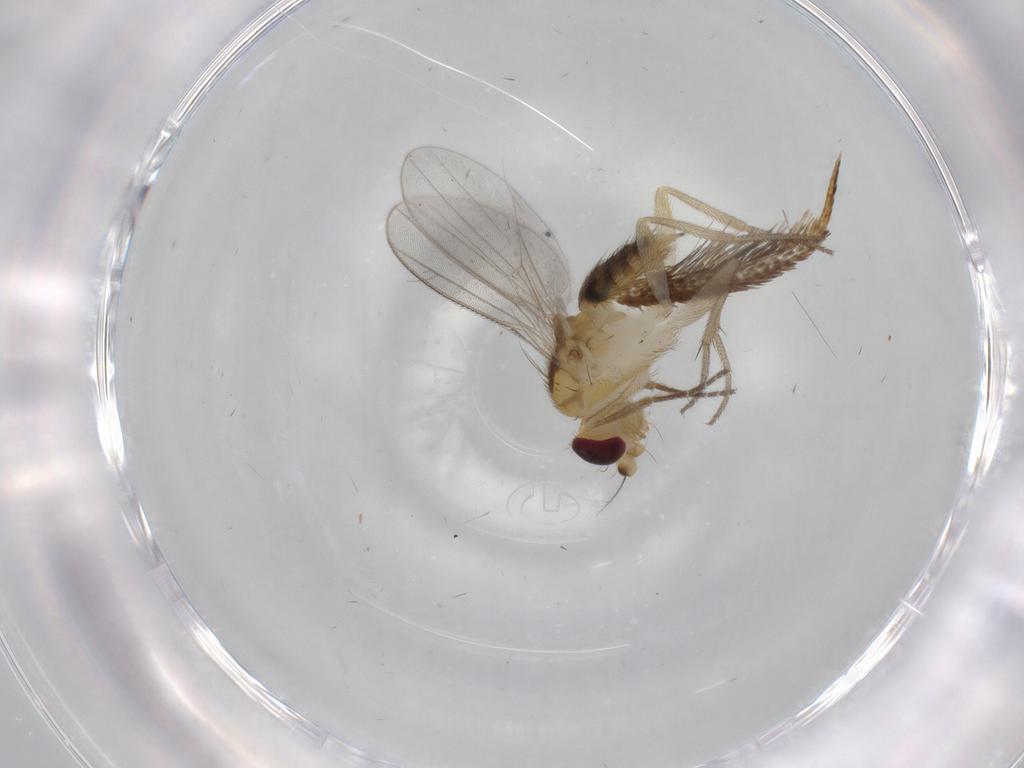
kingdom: Animalia
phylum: Arthropoda
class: Insecta
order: Diptera
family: Clusiidae
